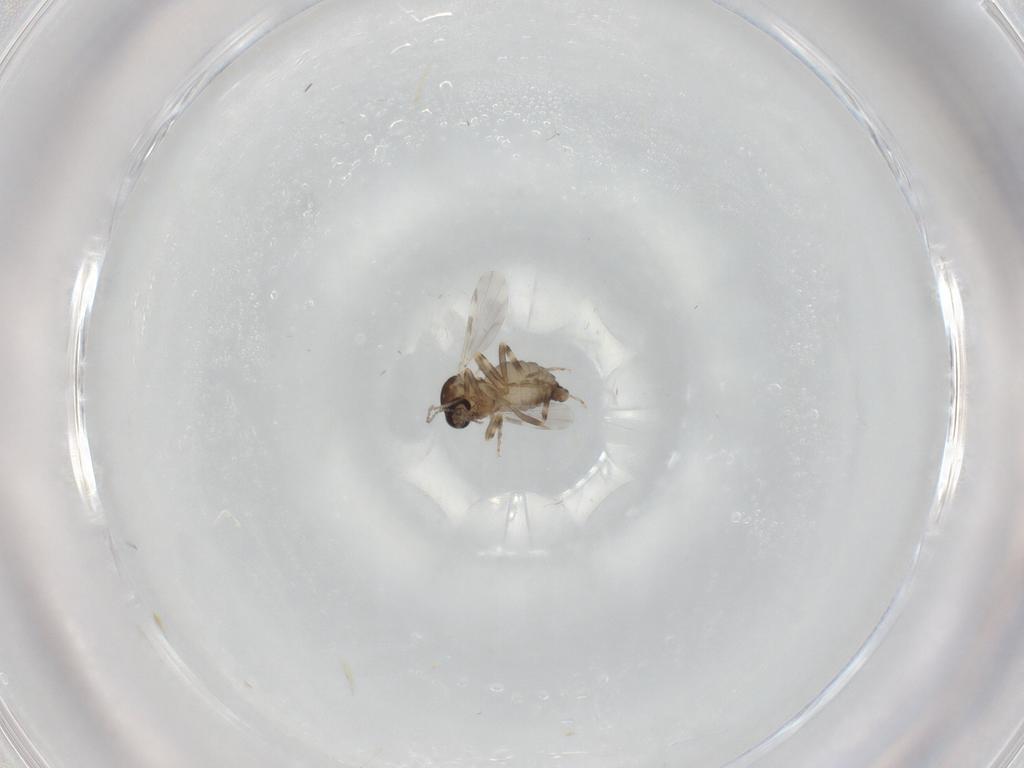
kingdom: Animalia
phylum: Arthropoda
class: Insecta
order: Diptera
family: Ceratopogonidae
